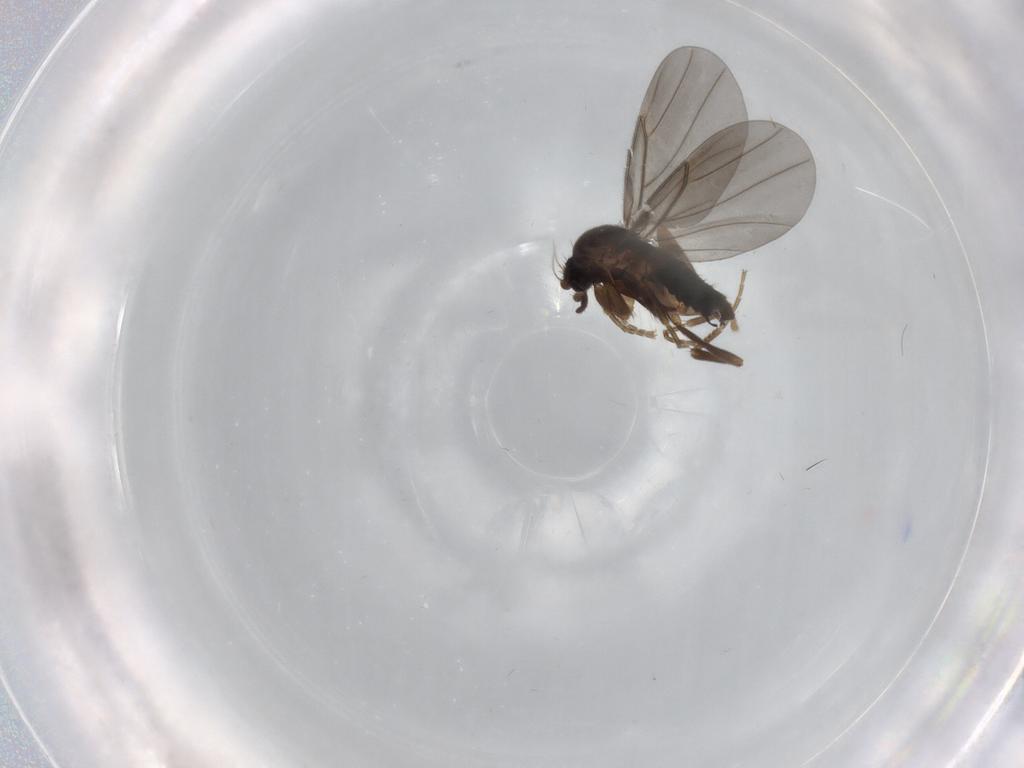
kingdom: Animalia
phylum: Arthropoda
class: Insecta
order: Diptera
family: Phoridae
